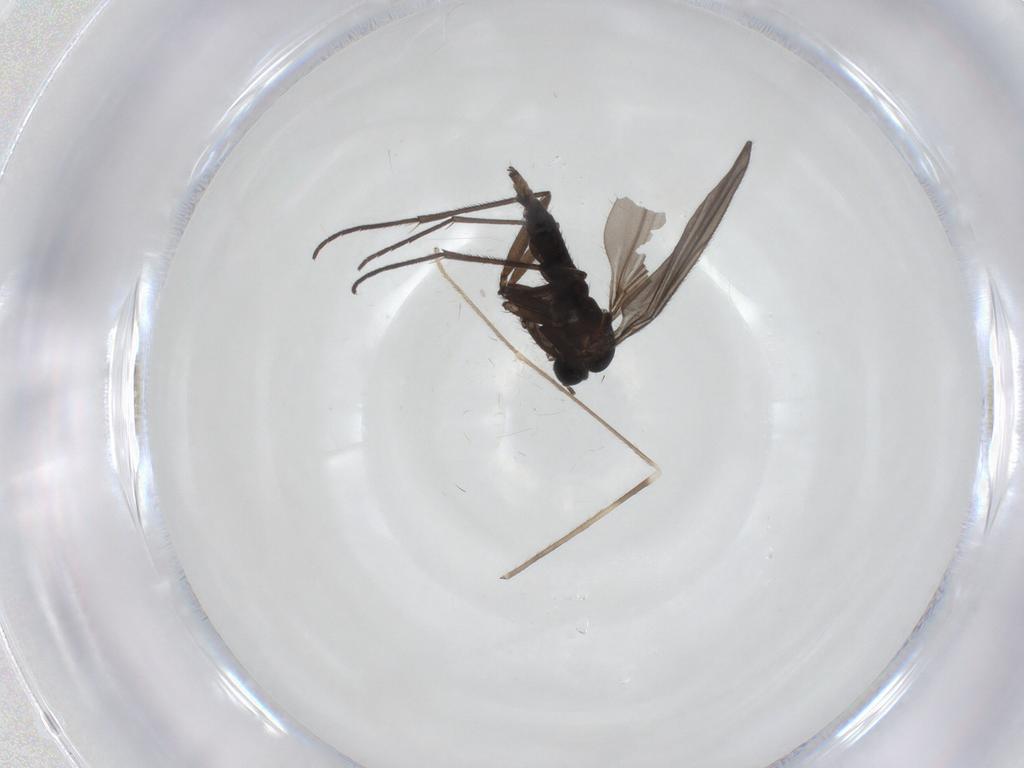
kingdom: Animalia
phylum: Arthropoda
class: Insecta
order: Diptera
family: Sciaridae
